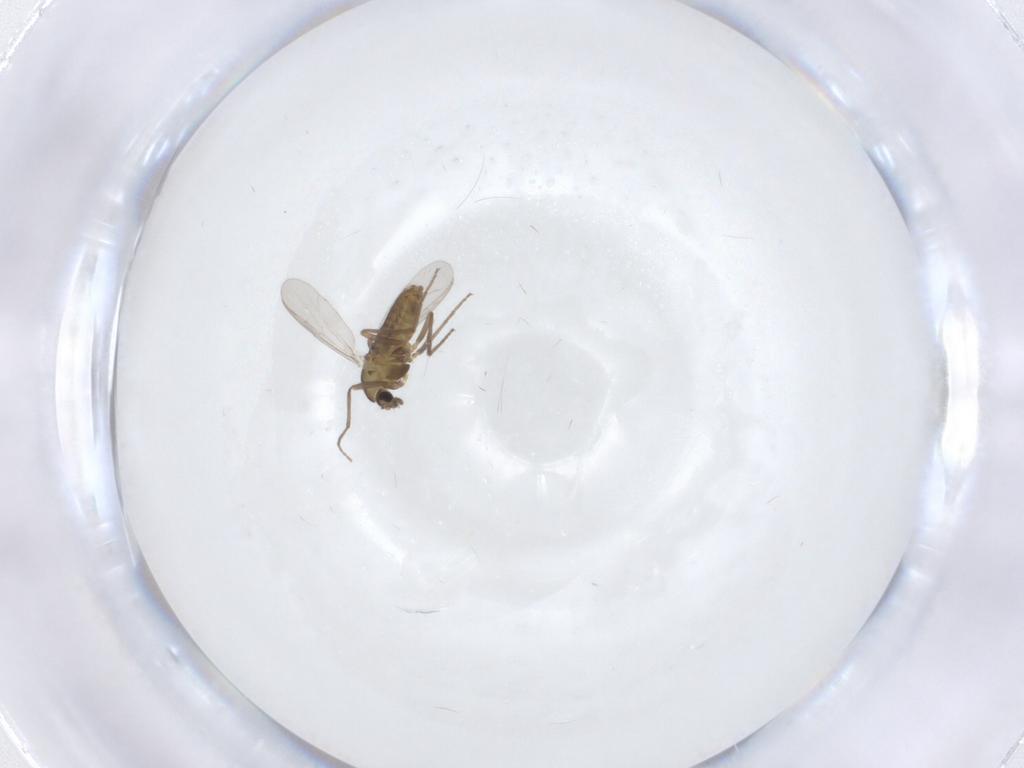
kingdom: Animalia
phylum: Arthropoda
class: Insecta
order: Diptera
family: Chironomidae
